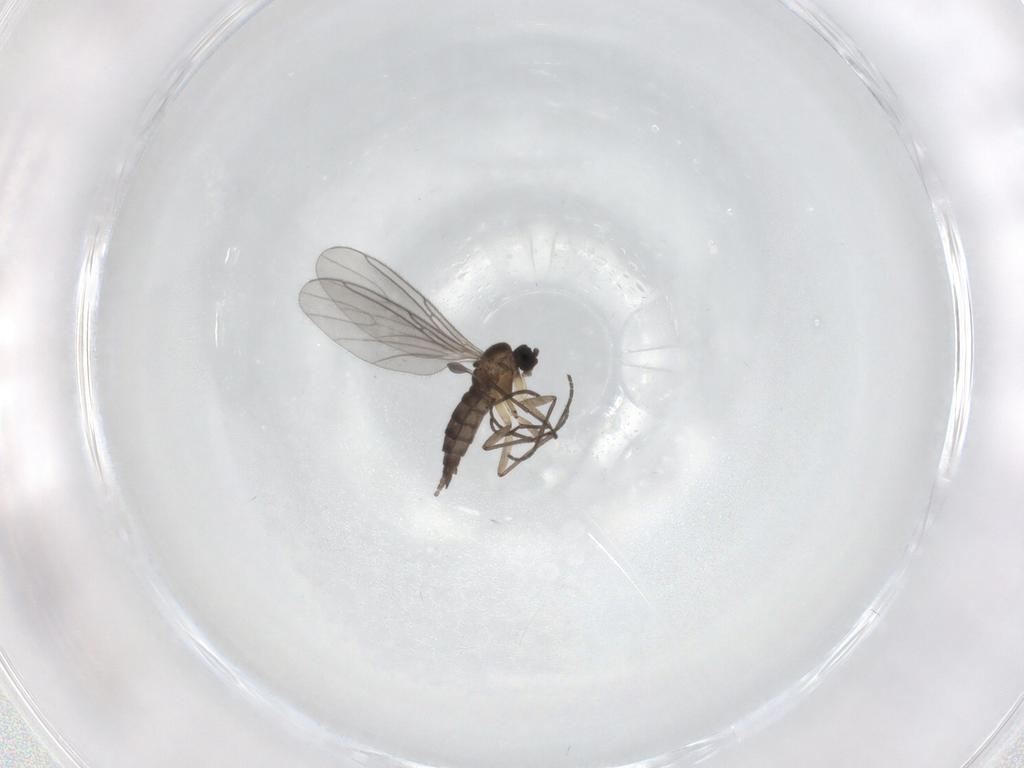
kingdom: Animalia
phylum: Arthropoda
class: Insecta
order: Diptera
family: Sciaridae
